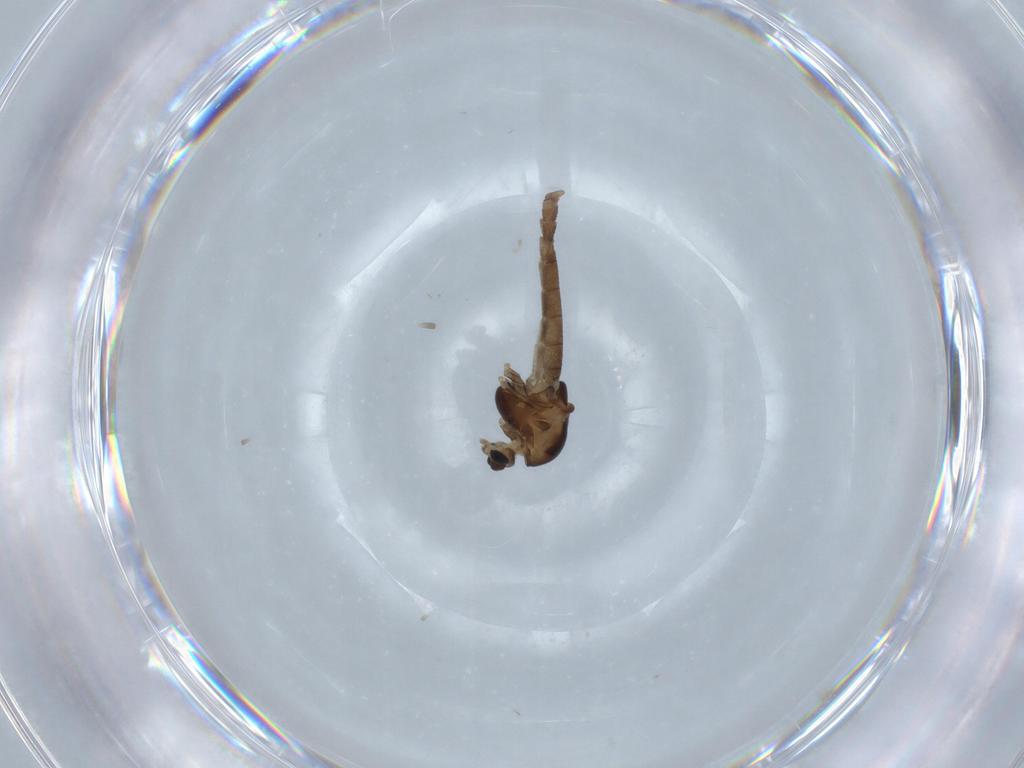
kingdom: Animalia
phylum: Arthropoda
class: Insecta
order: Diptera
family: Chironomidae
